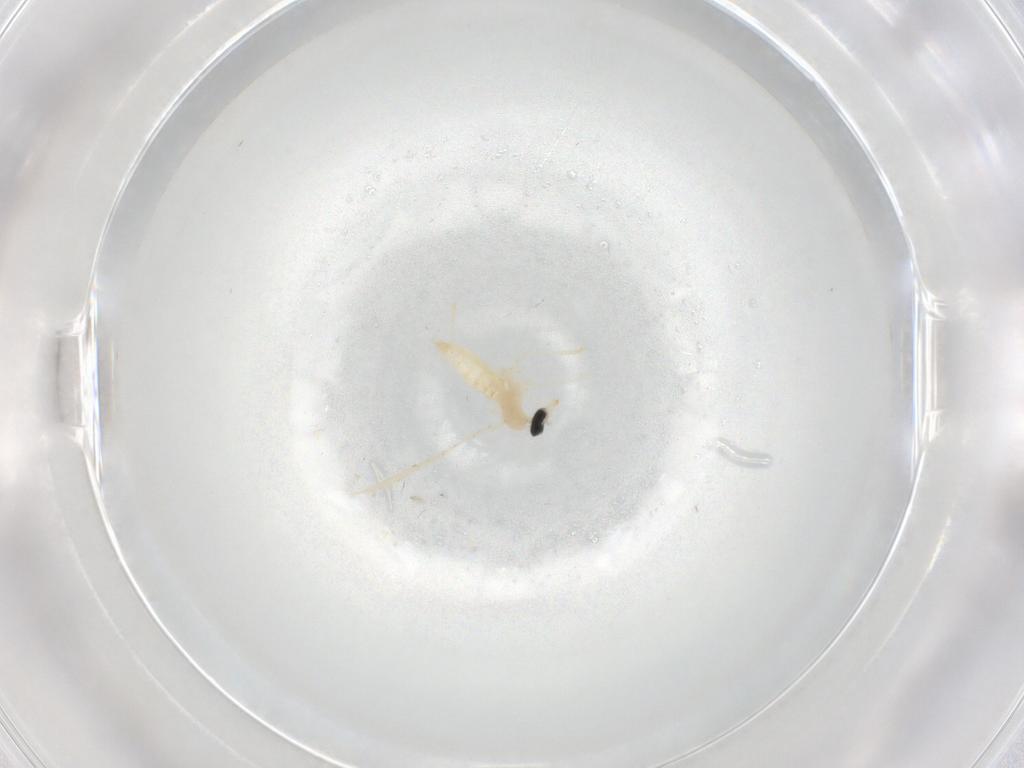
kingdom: Animalia
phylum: Arthropoda
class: Insecta
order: Diptera
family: Cecidomyiidae
